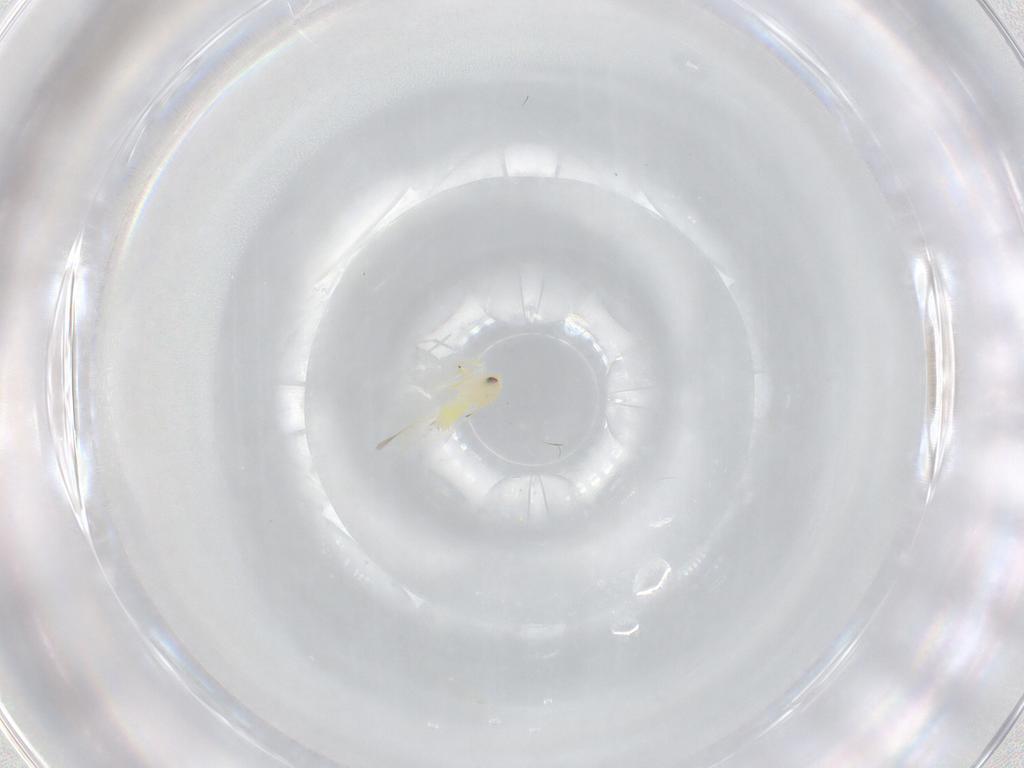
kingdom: Animalia
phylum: Arthropoda
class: Insecta
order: Hemiptera
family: Aleyrodidae
